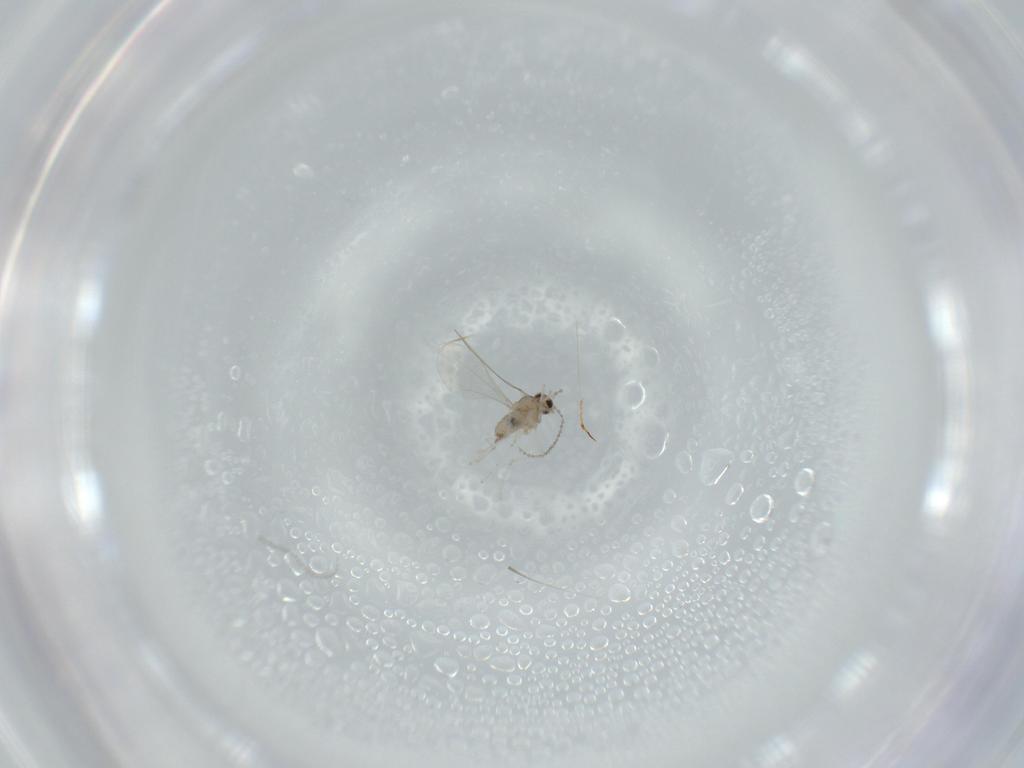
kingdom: Animalia
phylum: Arthropoda
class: Insecta
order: Diptera
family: Cecidomyiidae
